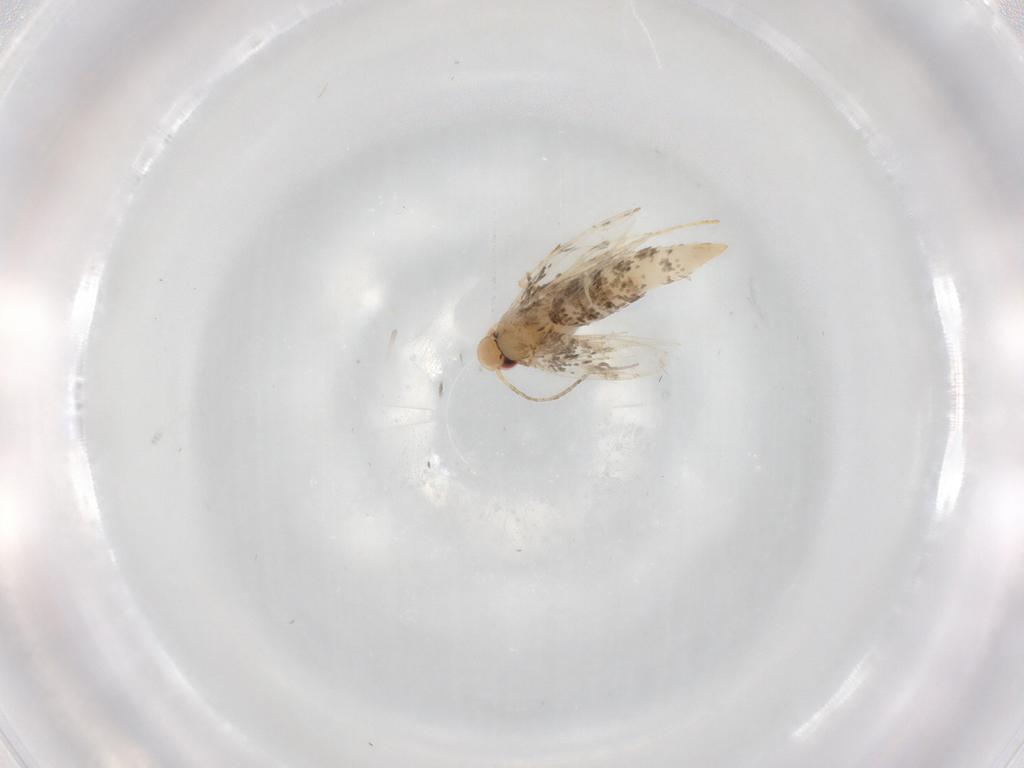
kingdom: Animalia
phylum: Arthropoda
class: Insecta
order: Lepidoptera
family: Gracillariidae
